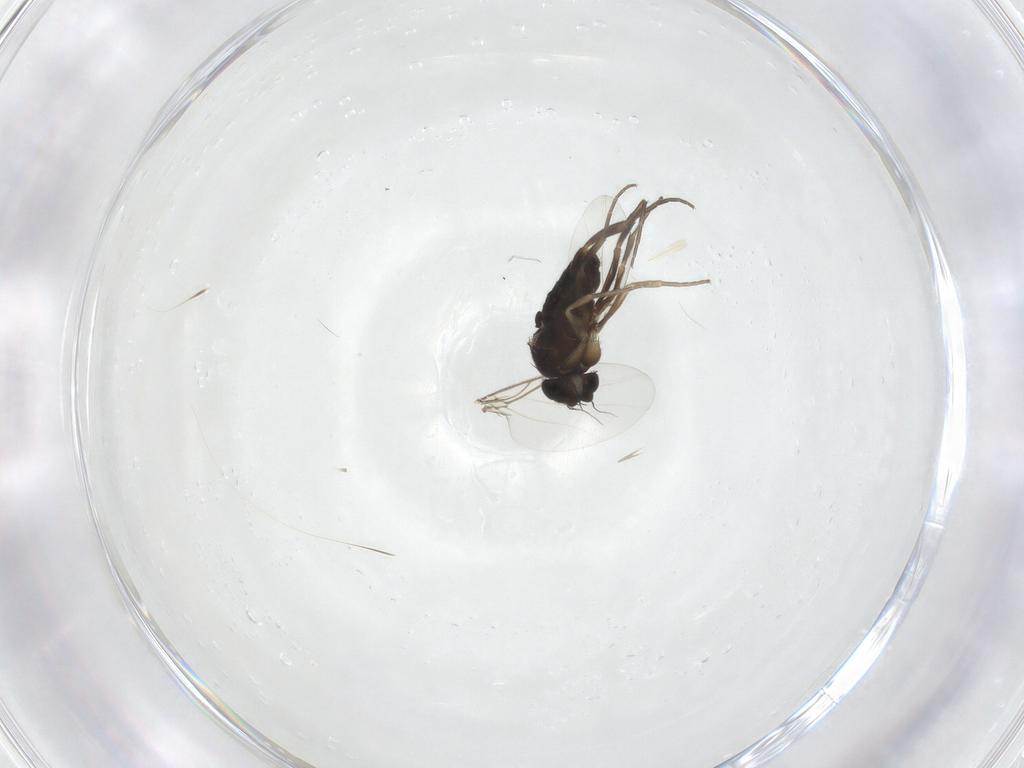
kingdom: Animalia
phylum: Arthropoda
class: Insecta
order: Diptera
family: Phoridae
